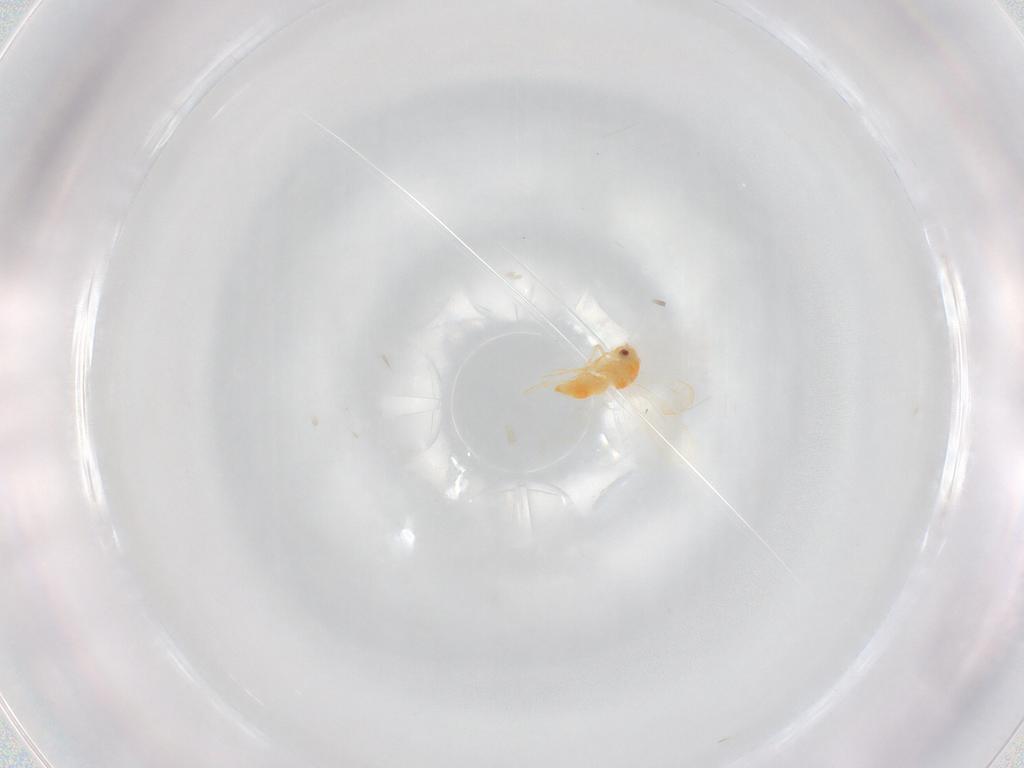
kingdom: Animalia
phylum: Arthropoda
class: Insecta
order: Hemiptera
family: Aleyrodidae
